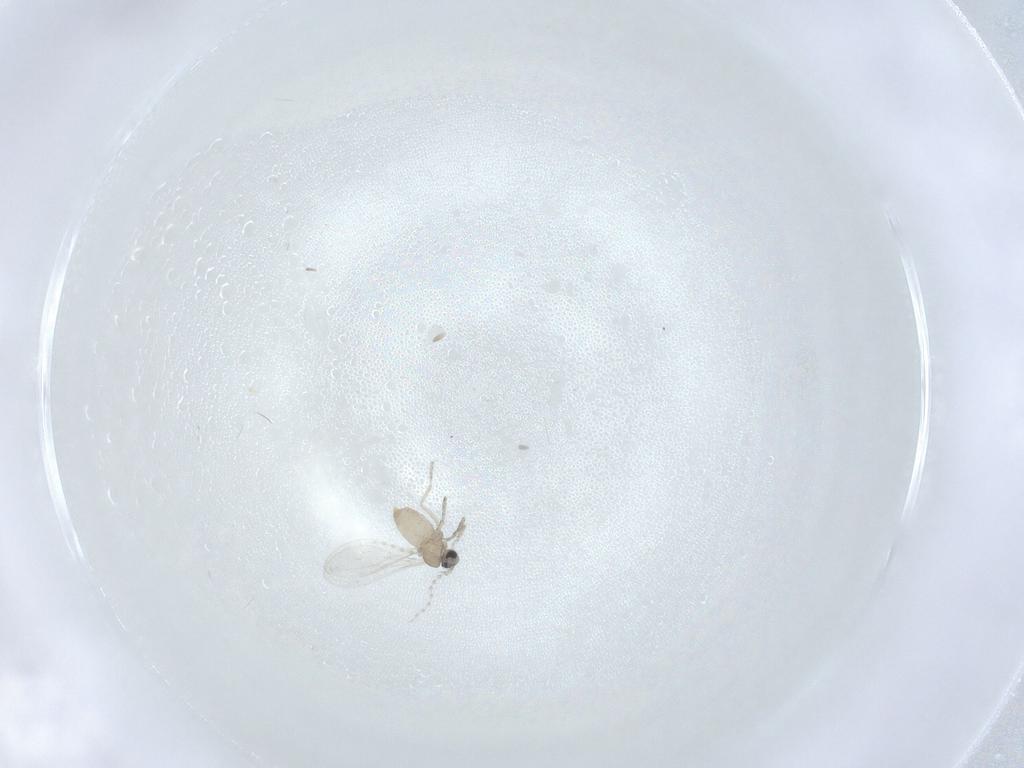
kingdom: Animalia
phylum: Arthropoda
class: Insecta
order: Diptera
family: Cecidomyiidae
